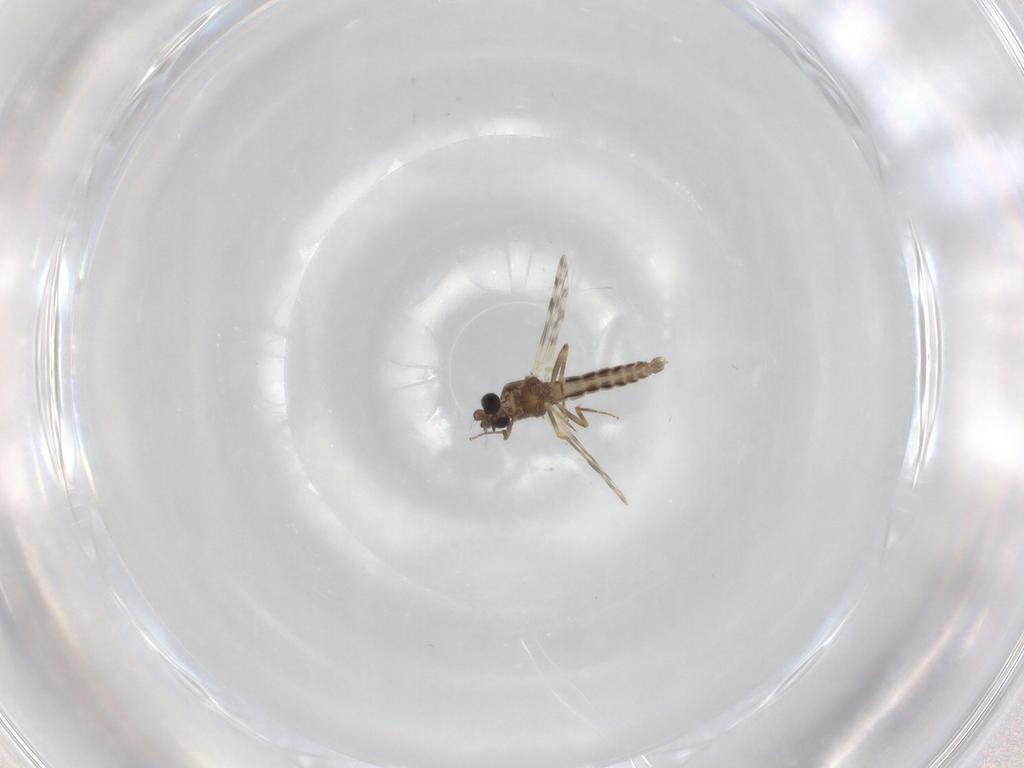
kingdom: Animalia
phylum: Arthropoda
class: Insecta
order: Diptera
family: Ceratopogonidae
